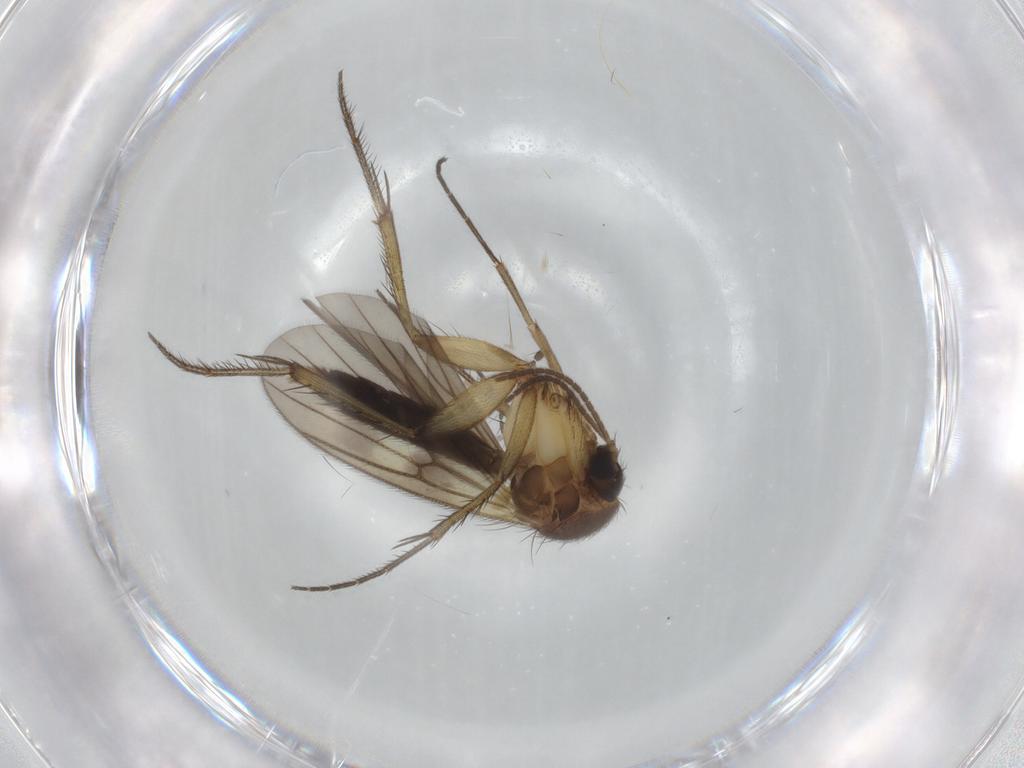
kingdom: Animalia
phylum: Arthropoda
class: Insecta
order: Diptera
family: Mycetophilidae
